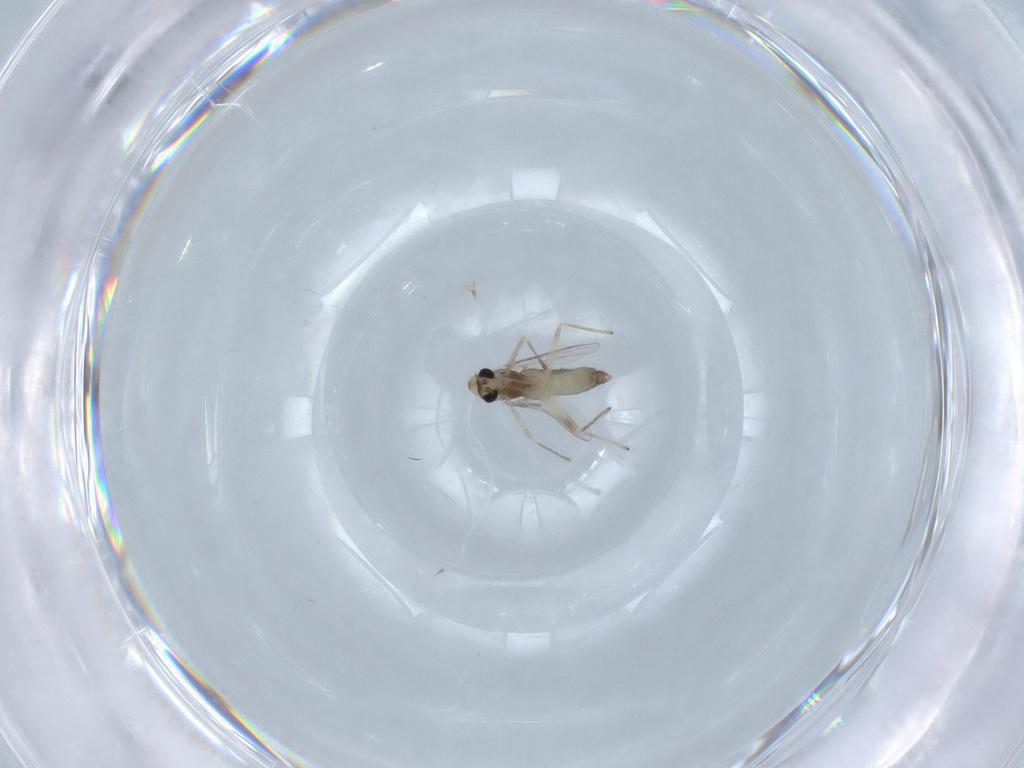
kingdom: Animalia
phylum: Arthropoda
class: Insecta
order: Diptera
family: Chironomidae
